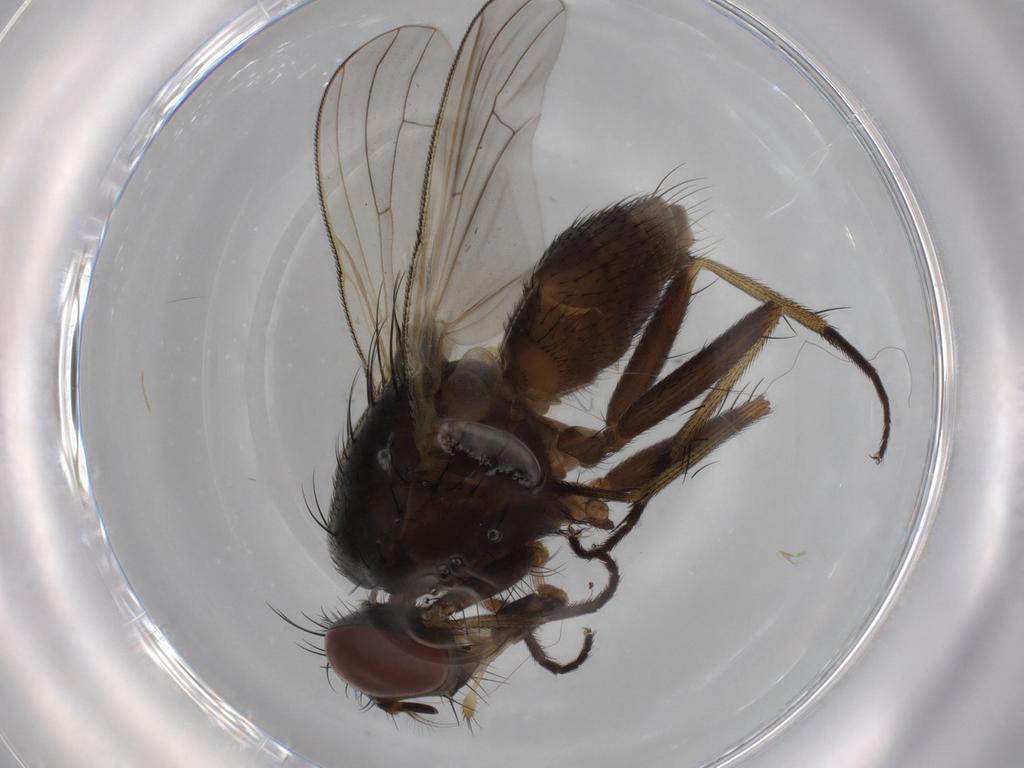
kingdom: Animalia
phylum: Arthropoda
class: Insecta
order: Diptera
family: Muscidae
